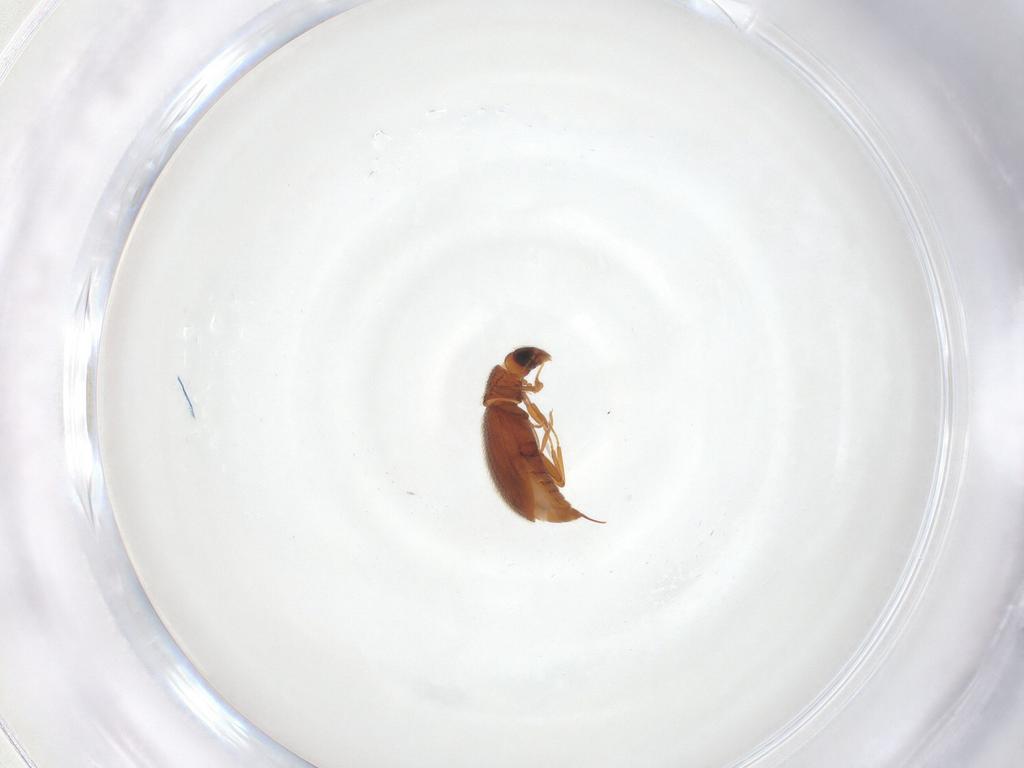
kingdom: Animalia
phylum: Arthropoda
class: Insecta
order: Coleoptera
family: Latridiidae
